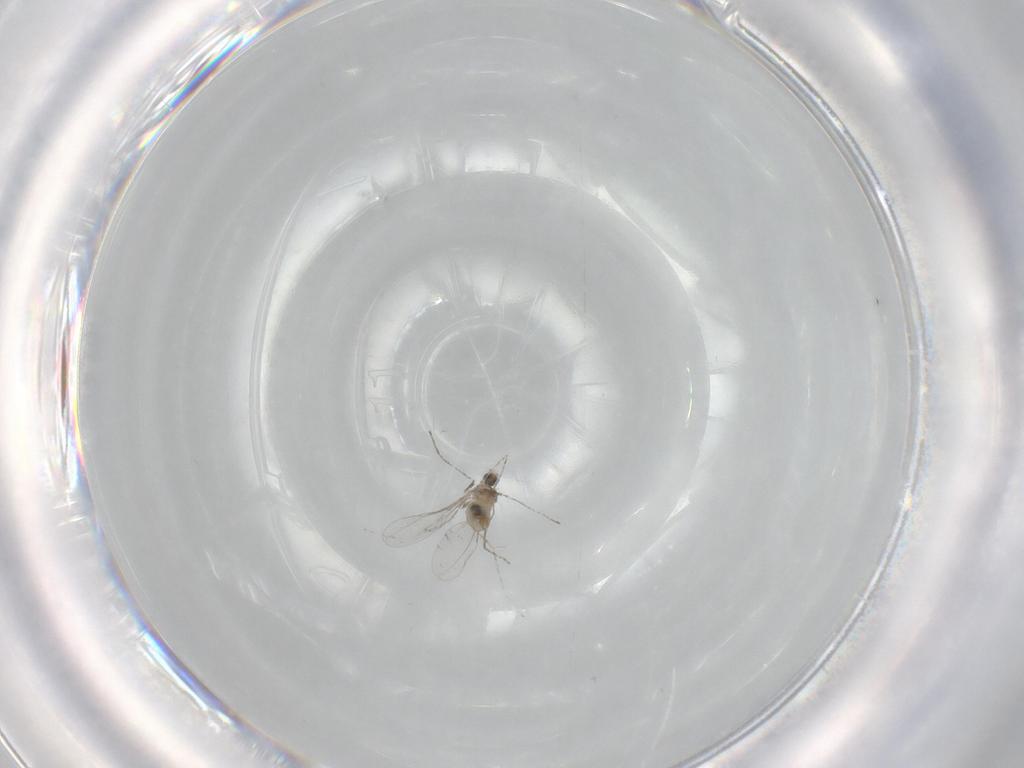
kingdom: Animalia
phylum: Arthropoda
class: Insecta
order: Diptera
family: Cecidomyiidae
